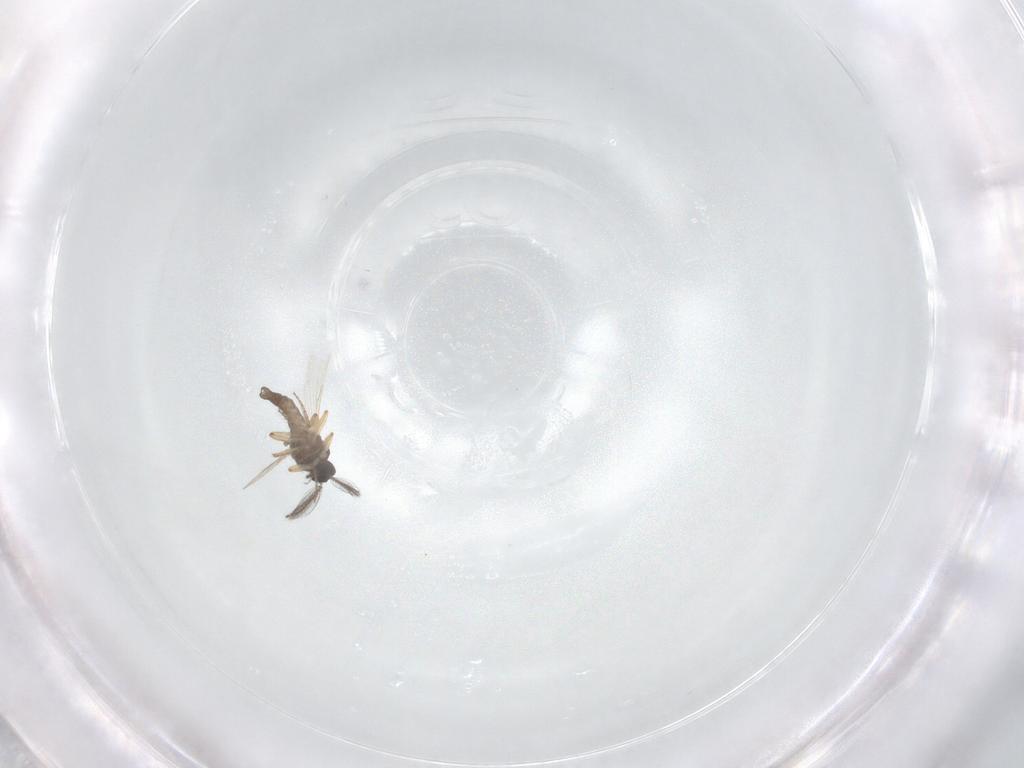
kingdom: Animalia
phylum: Arthropoda
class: Insecta
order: Diptera
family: Ceratopogonidae
